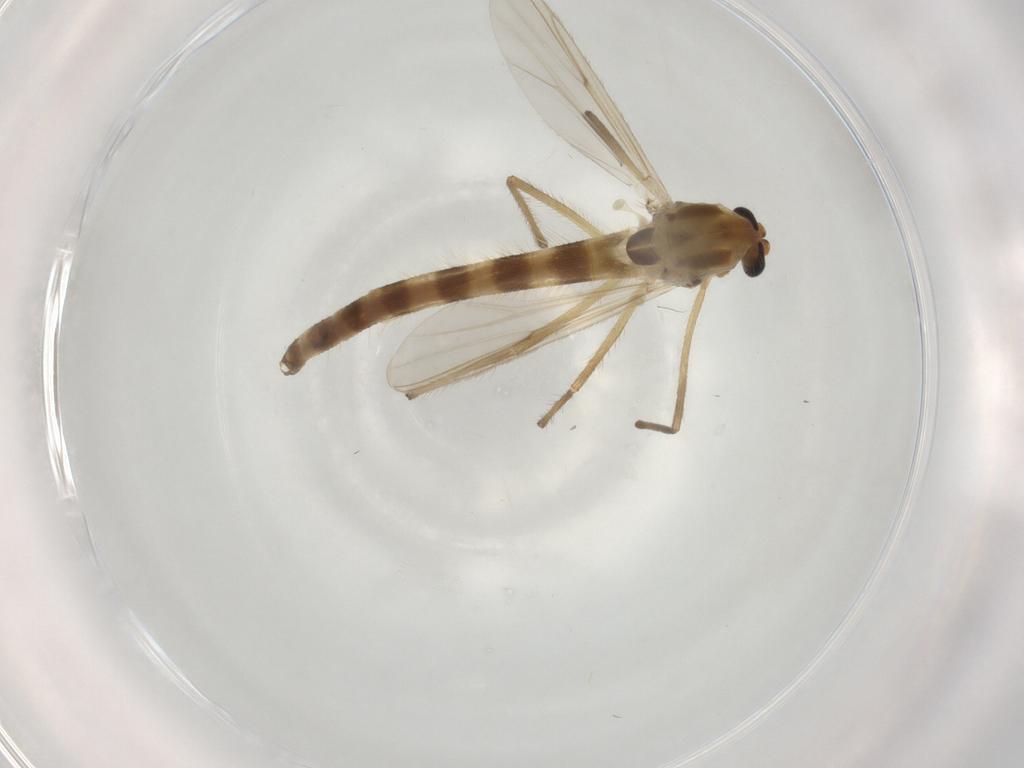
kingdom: Animalia
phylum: Arthropoda
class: Insecta
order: Diptera
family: Chironomidae
